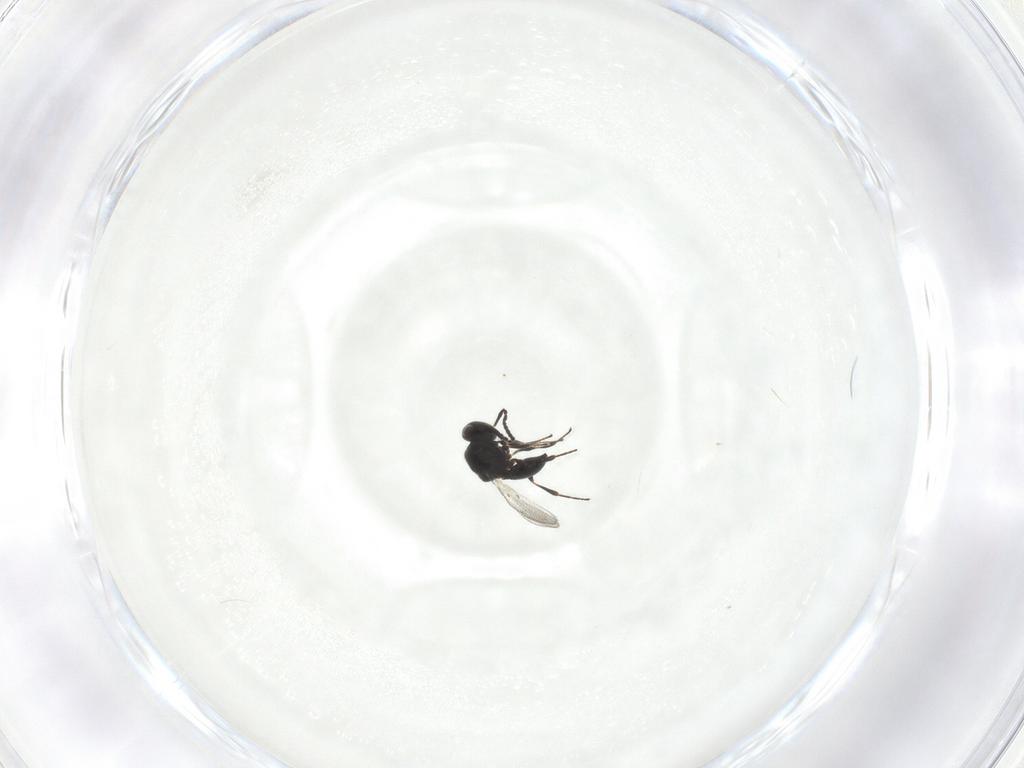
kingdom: Animalia
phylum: Arthropoda
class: Insecta
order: Hymenoptera
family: Platygastridae
